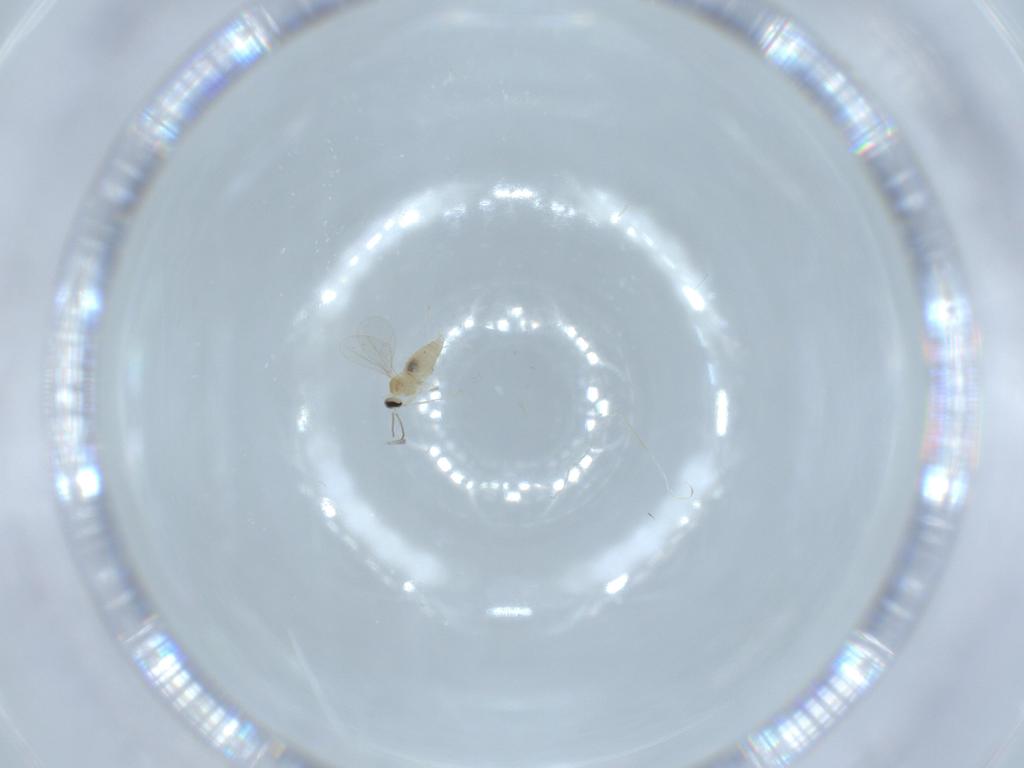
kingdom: Animalia
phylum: Arthropoda
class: Insecta
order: Diptera
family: Cecidomyiidae
